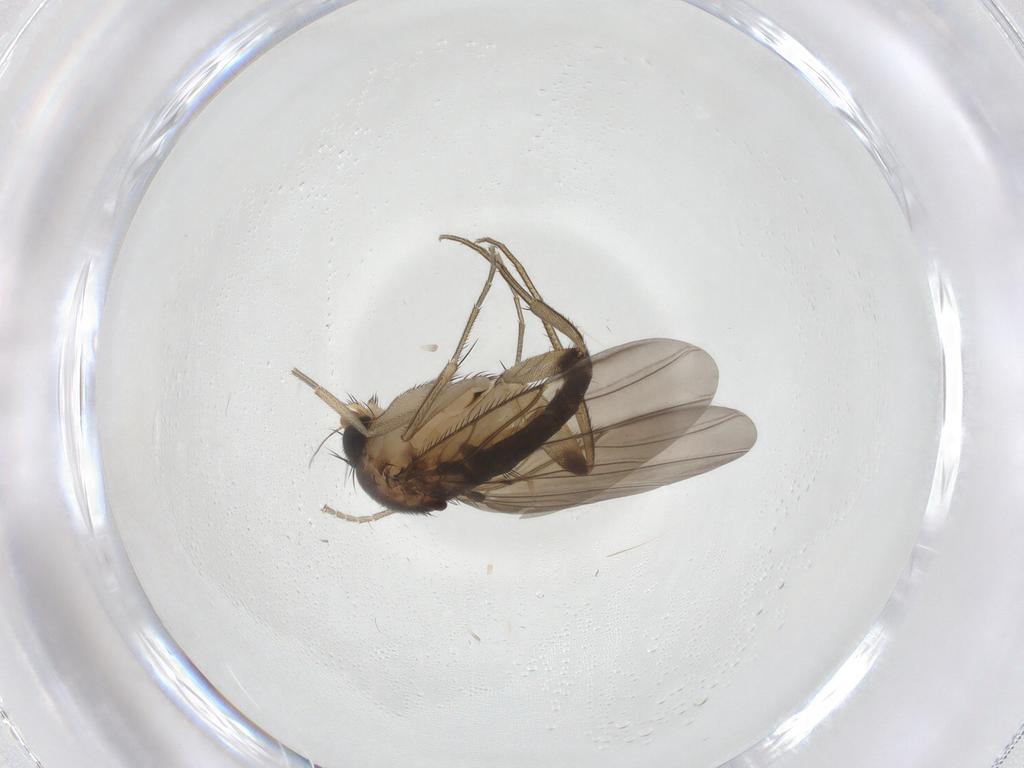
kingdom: Animalia
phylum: Arthropoda
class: Insecta
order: Diptera
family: Phoridae
